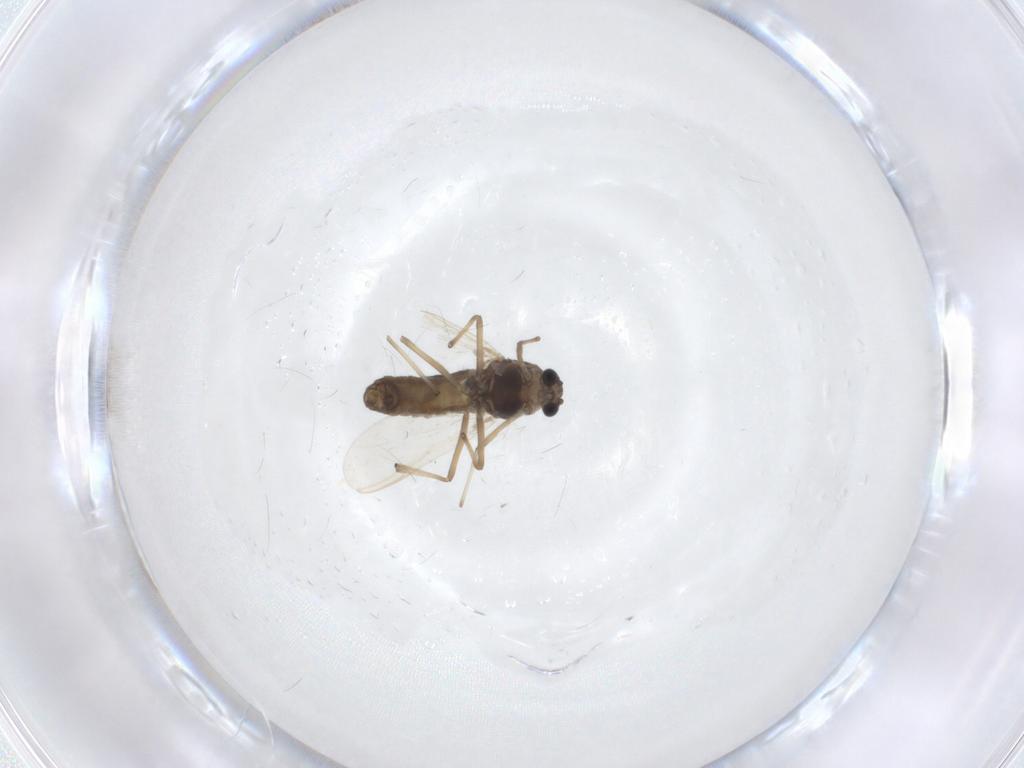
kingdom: Animalia
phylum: Arthropoda
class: Insecta
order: Diptera
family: Chironomidae
